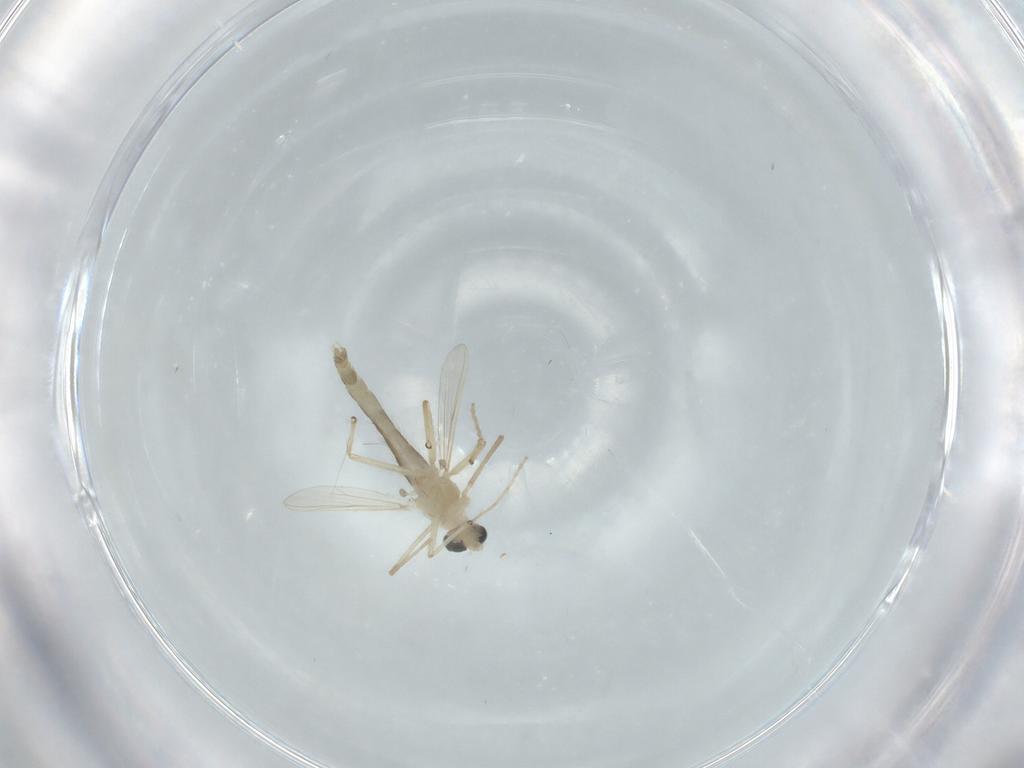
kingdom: Animalia
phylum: Arthropoda
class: Insecta
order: Diptera
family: Chironomidae
